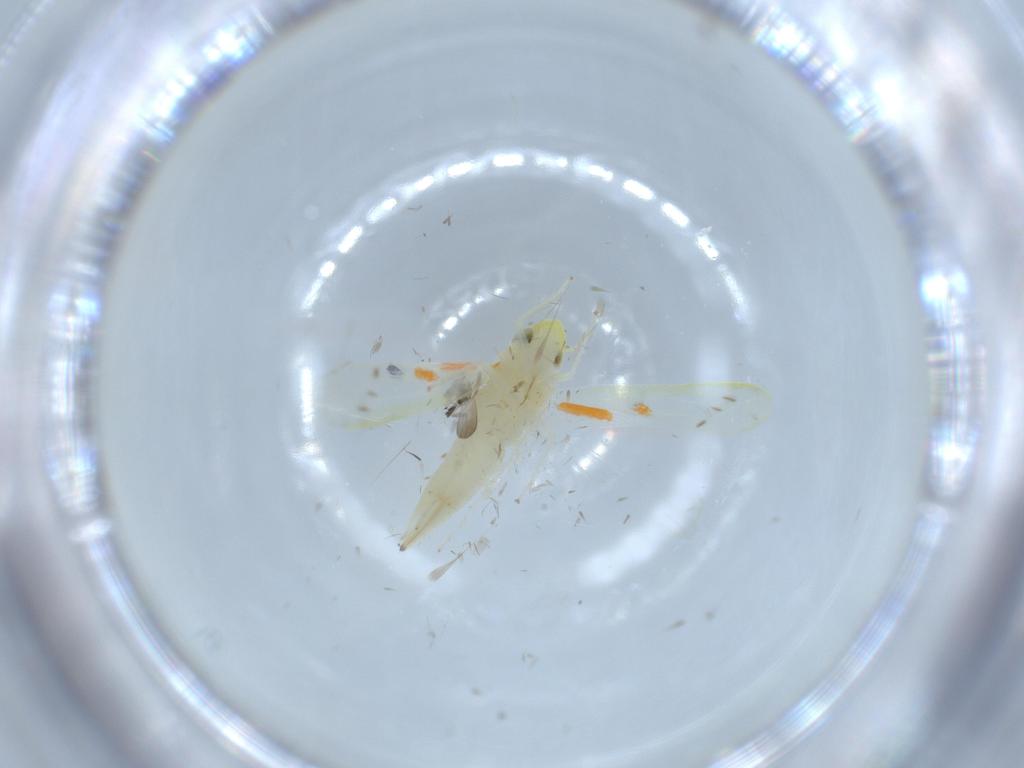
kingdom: Animalia
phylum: Arthropoda
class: Insecta
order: Hemiptera
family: Cicadellidae
